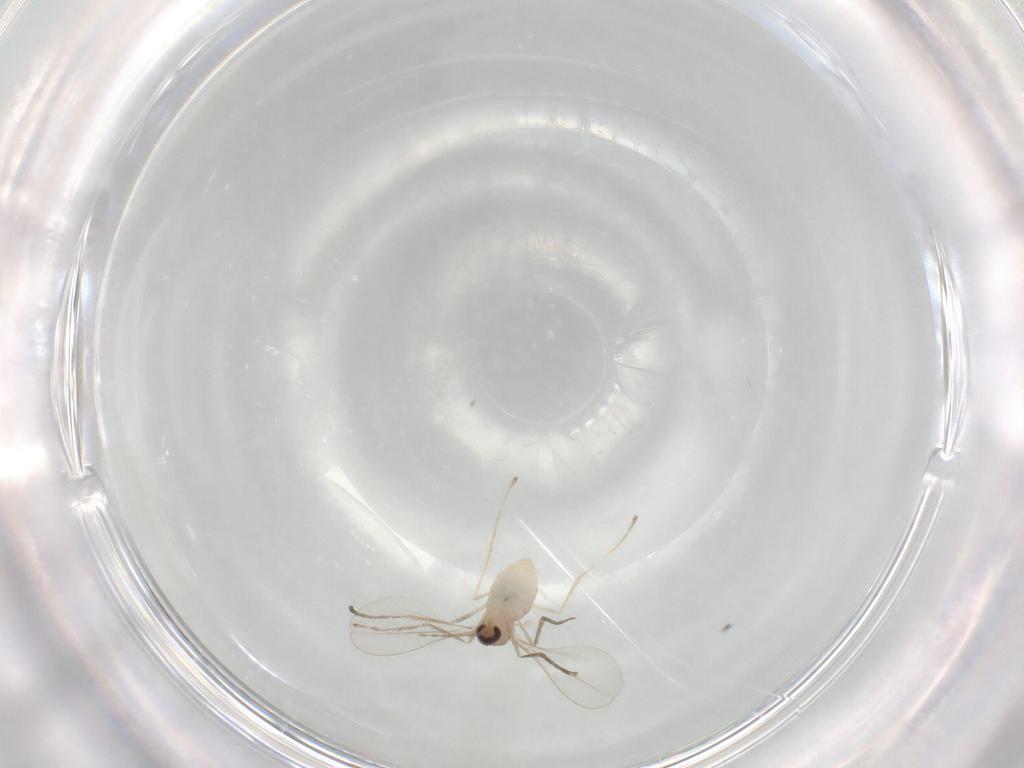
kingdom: Animalia
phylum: Arthropoda
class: Insecta
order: Diptera
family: Cecidomyiidae
